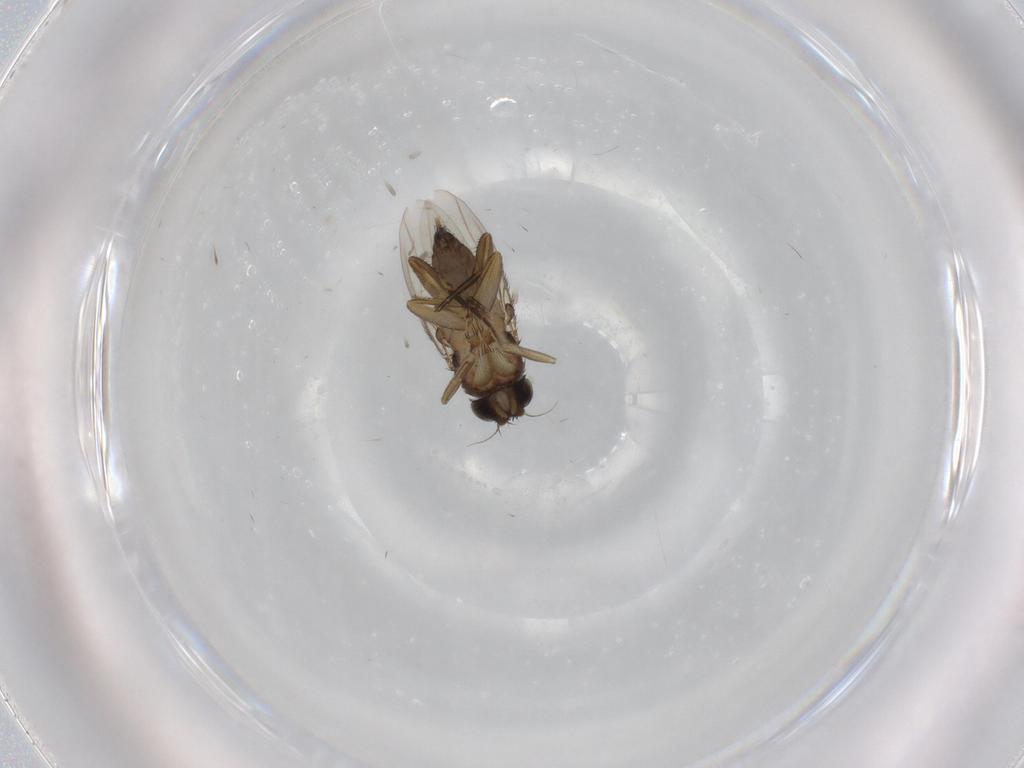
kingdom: Animalia
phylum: Arthropoda
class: Insecta
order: Diptera
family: Phoridae
